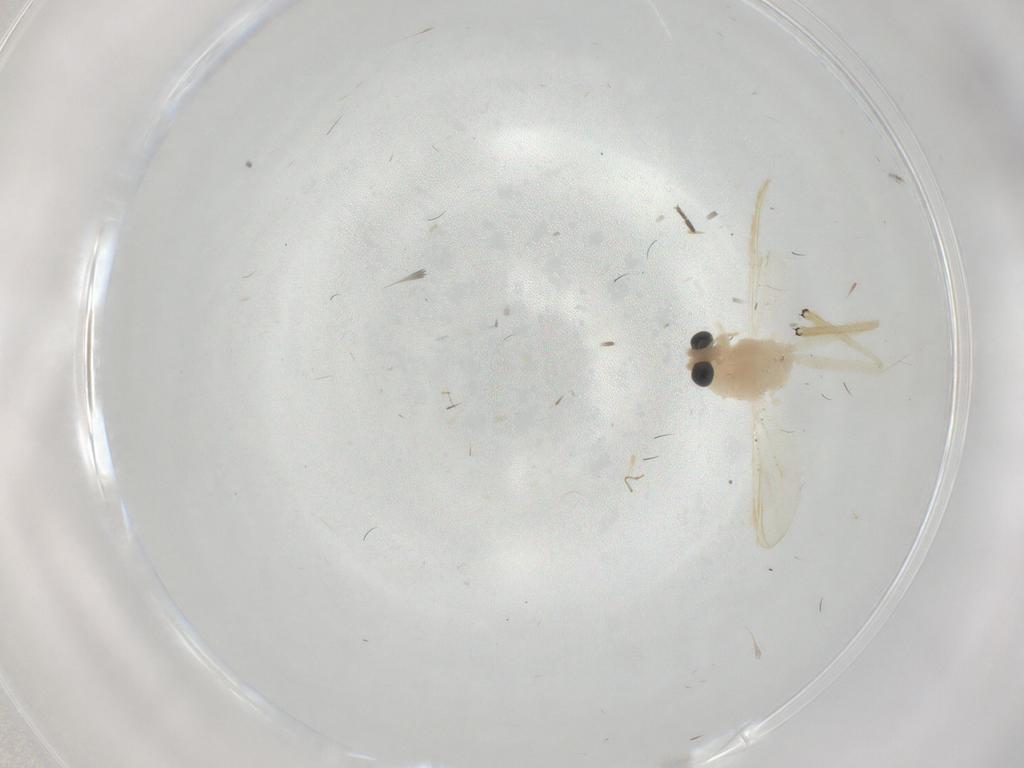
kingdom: Animalia
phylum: Arthropoda
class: Insecta
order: Diptera
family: Chironomidae
